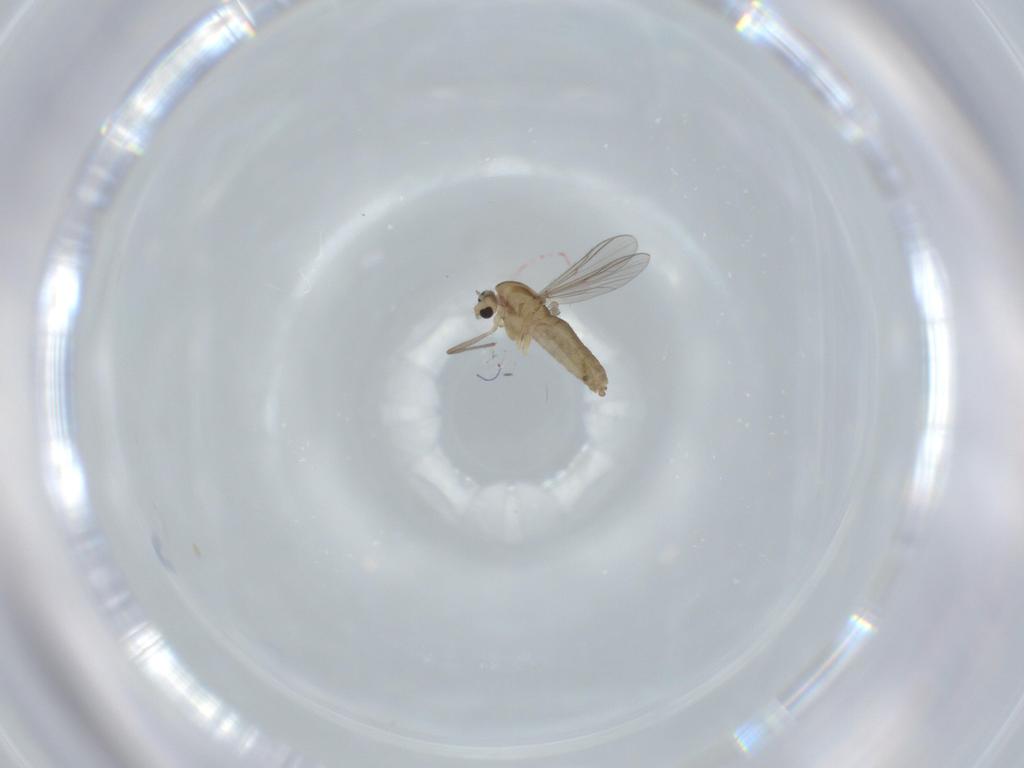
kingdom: Animalia
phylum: Arthropoda
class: Insecta
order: Diptera
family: Chironomidae
